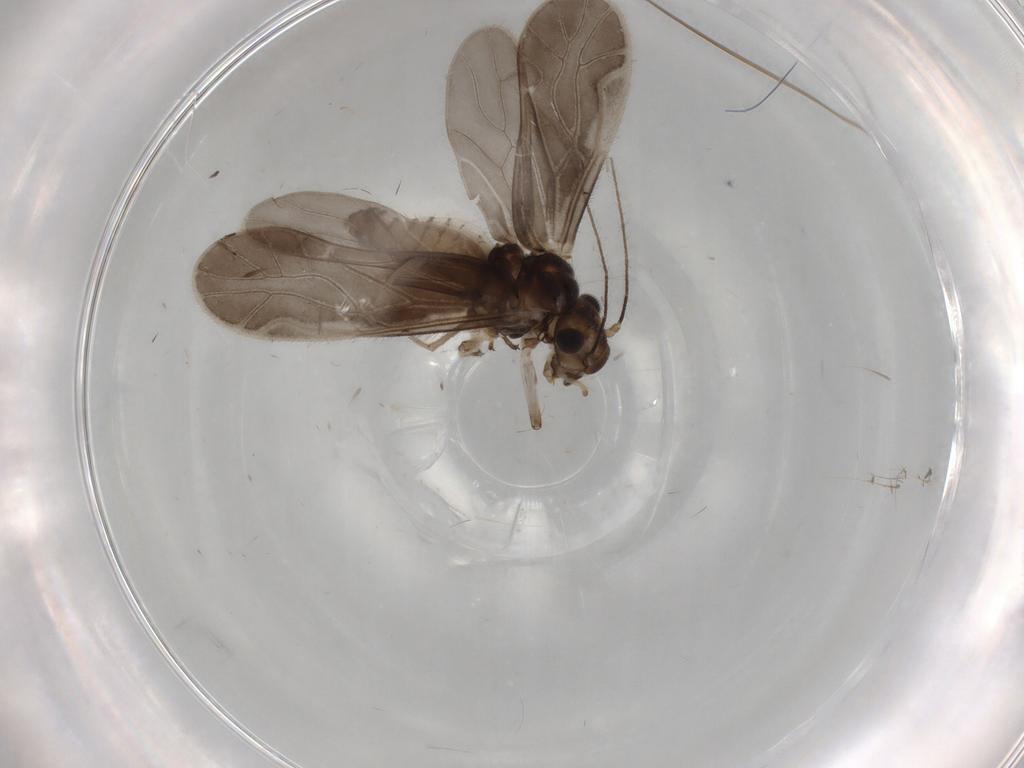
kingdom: Animalia
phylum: Arthropoda
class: Insecta
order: Psocodea
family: Caeciliusidae
